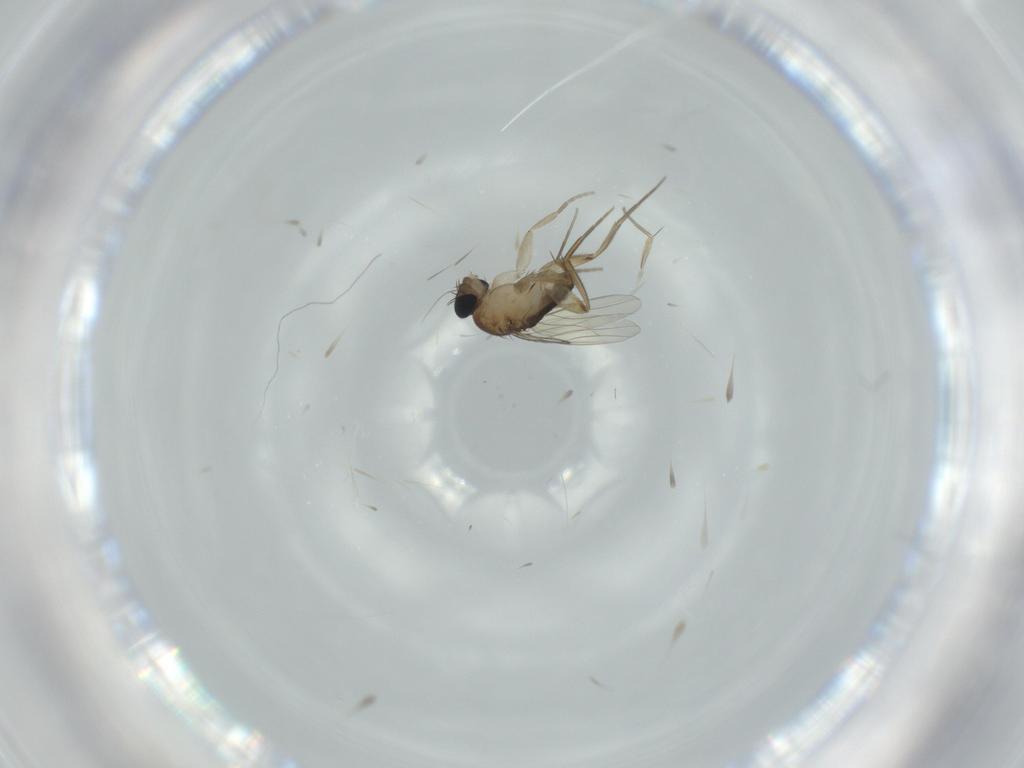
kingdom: Animalia
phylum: Arthropoda
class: Insecta
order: Diptera
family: Phoridae
